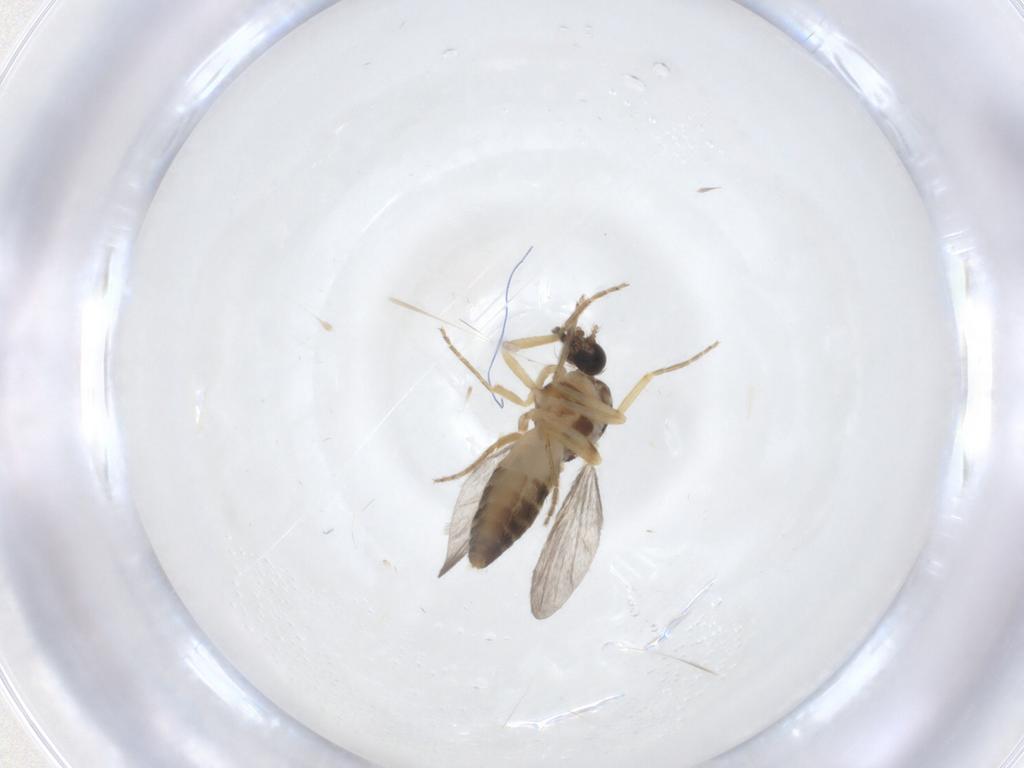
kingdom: Animalia
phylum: Arthropoda
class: Insecta
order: Diptera
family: Ceratopogonidae
